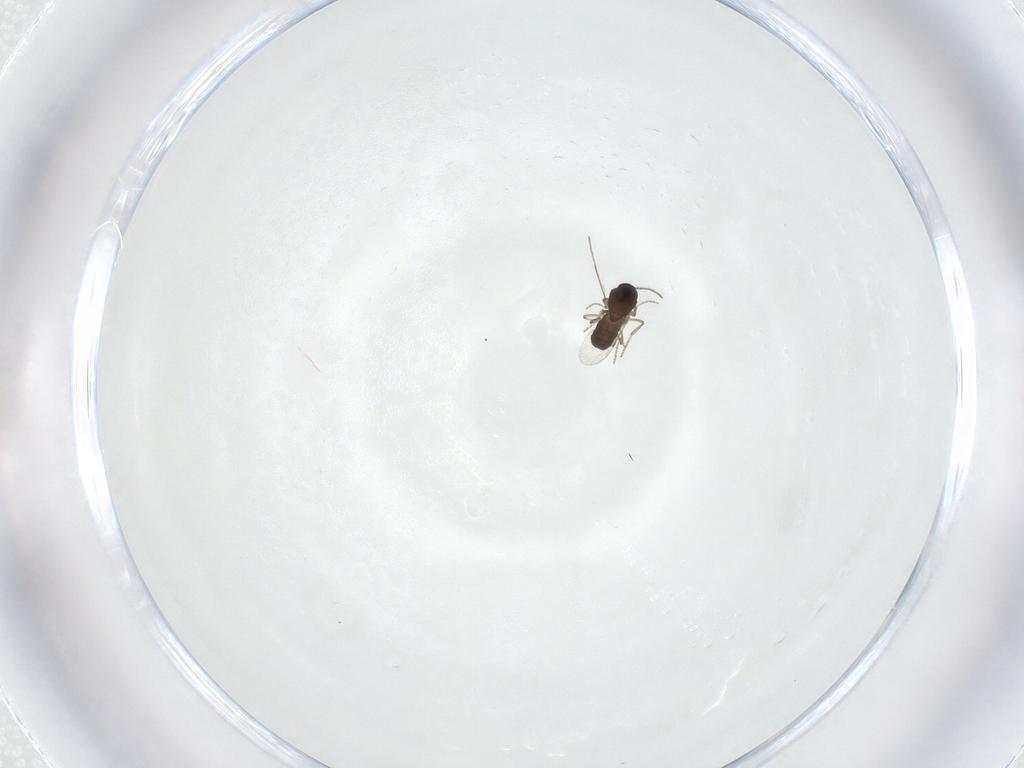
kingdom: Animalia
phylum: Arthropoda
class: Insecta
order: Diptera
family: Ceratopogonidae
